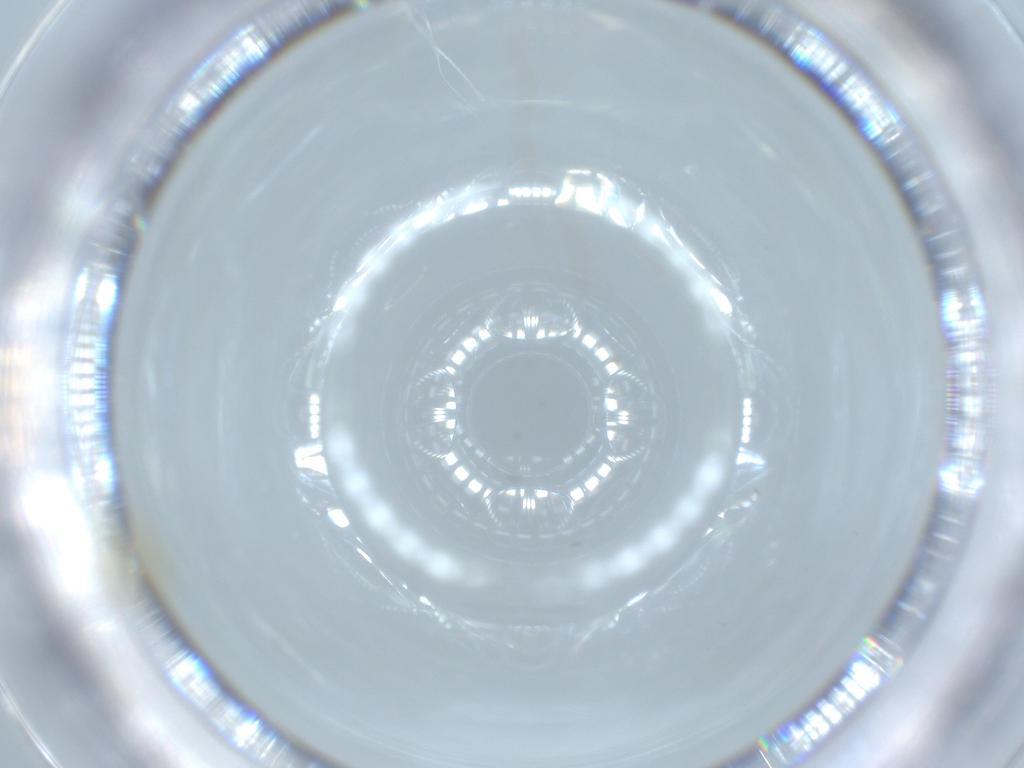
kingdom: Animalia
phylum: Arthropoda
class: Insecta
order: Hemiptera
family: Aleyrodidae
